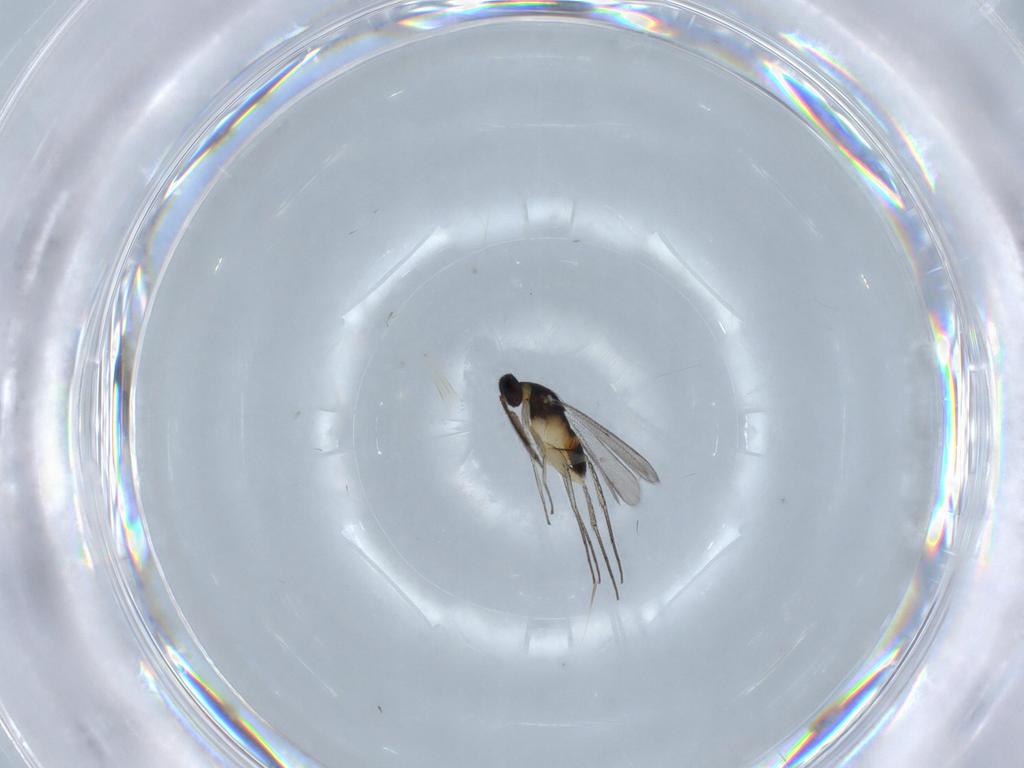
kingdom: Animalia
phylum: Arthropoda
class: Insecta
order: Hymenoptera
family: Eulophidae
